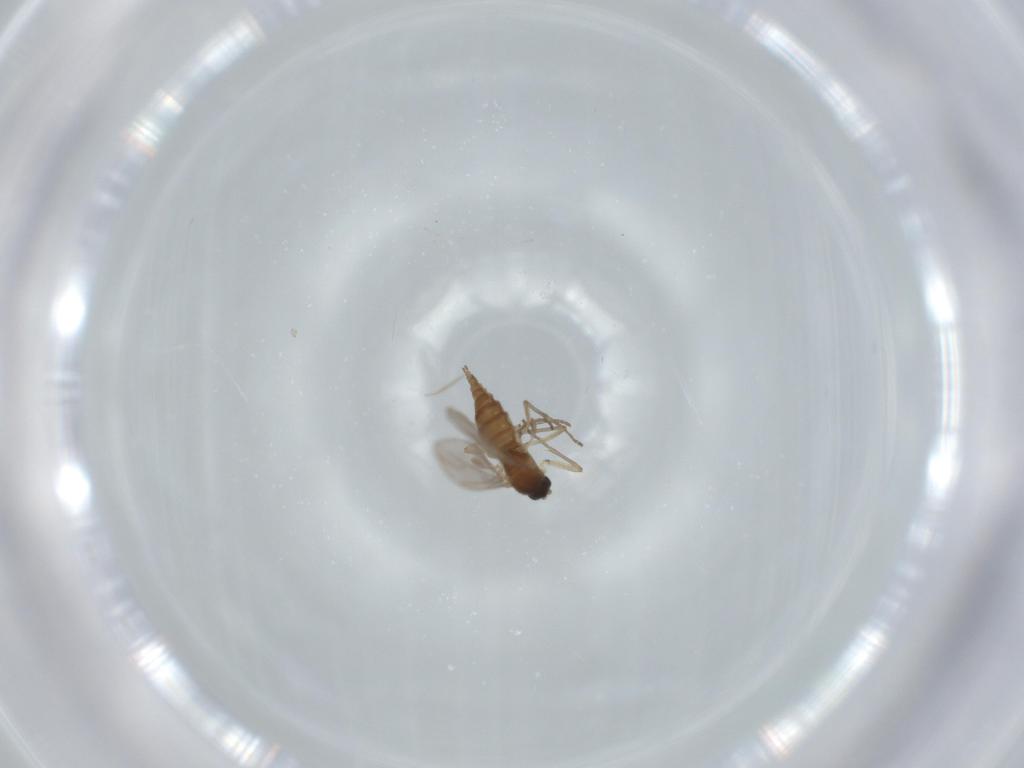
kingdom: Animalia
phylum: Arthropoda
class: Insecta
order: Diptera
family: Sciaridae
